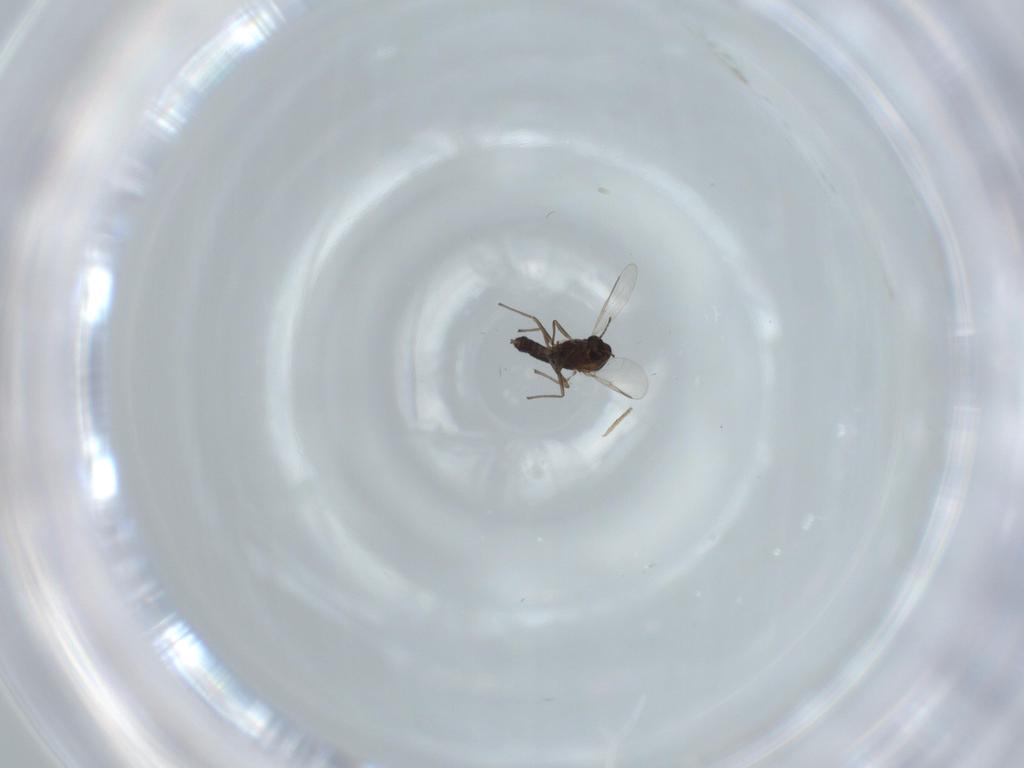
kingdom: Animalia
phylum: Arthropoda
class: Insecta
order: Diptera
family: Chironomidae
